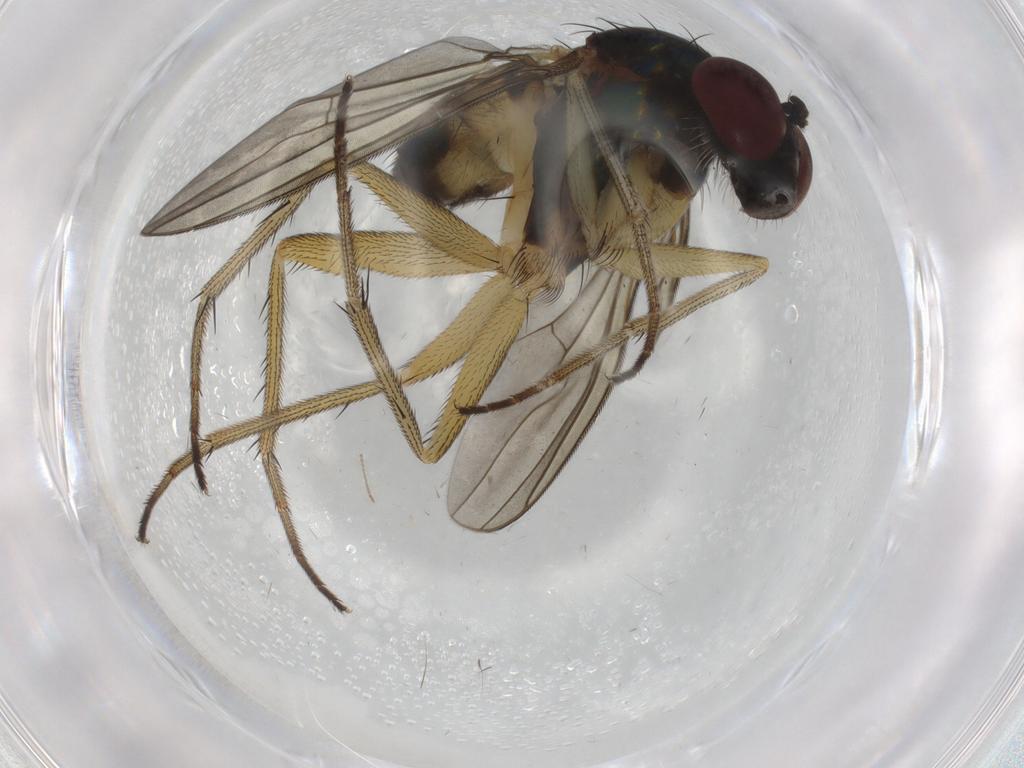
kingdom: Animalia
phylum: Arthropoda
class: Insecta
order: Diptera
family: Dolichopodidae
